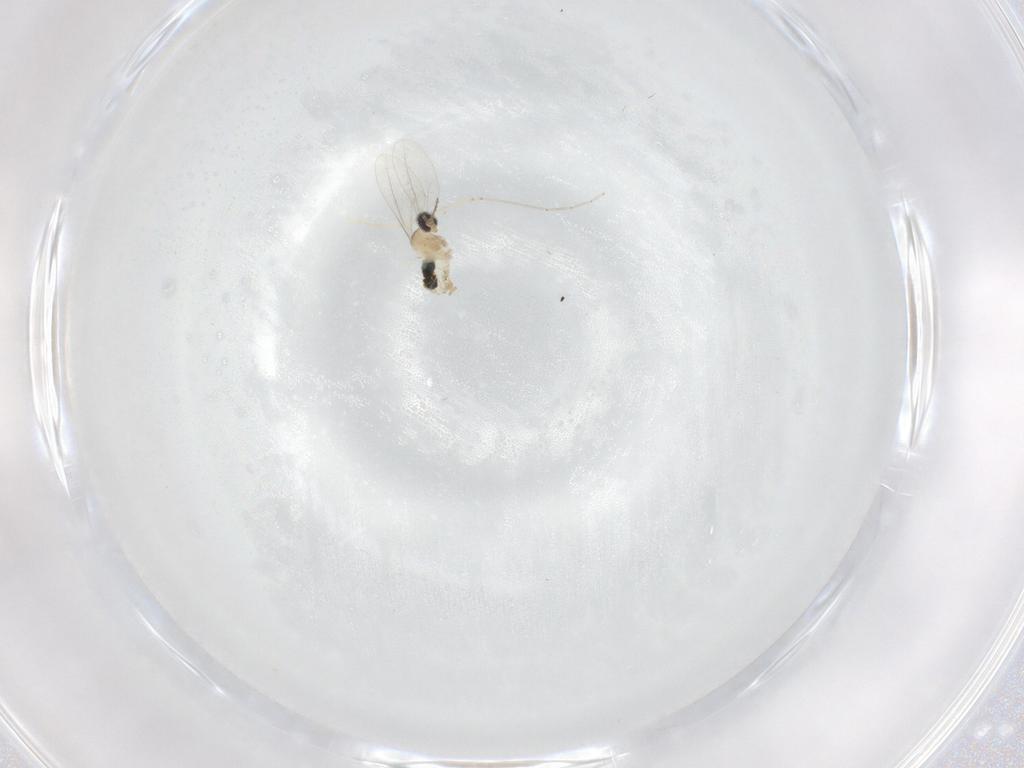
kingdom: Animalia
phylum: Arthropoda
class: Insecta
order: Diptera
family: Cecidomyiidae
